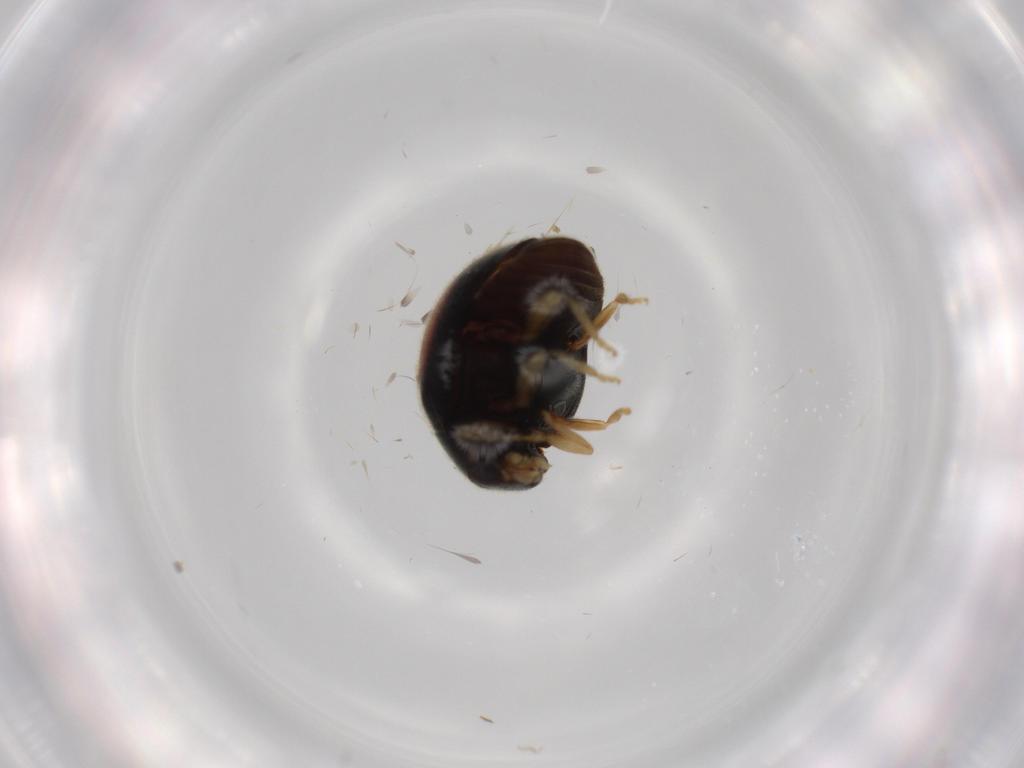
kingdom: Animalia
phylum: Arthropoda
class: Insecta
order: Coleoptera
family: Coccinellidae
